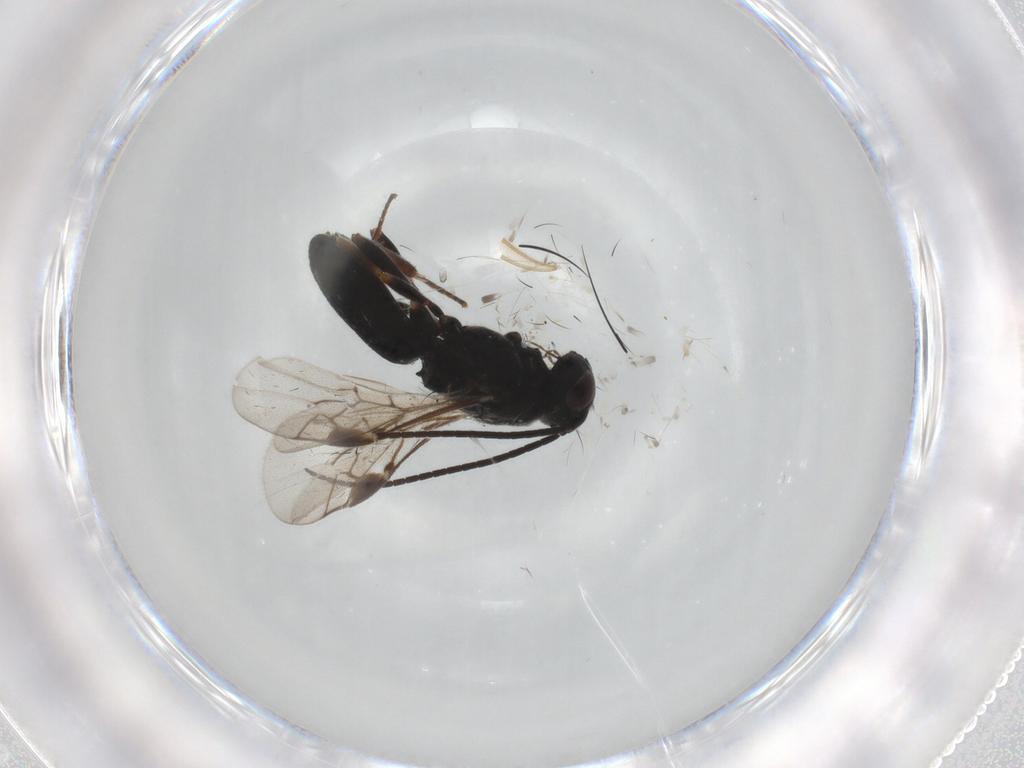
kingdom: Animalia
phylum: Arthropoda
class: Insecta
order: Hymenoptera
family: Braconidae
